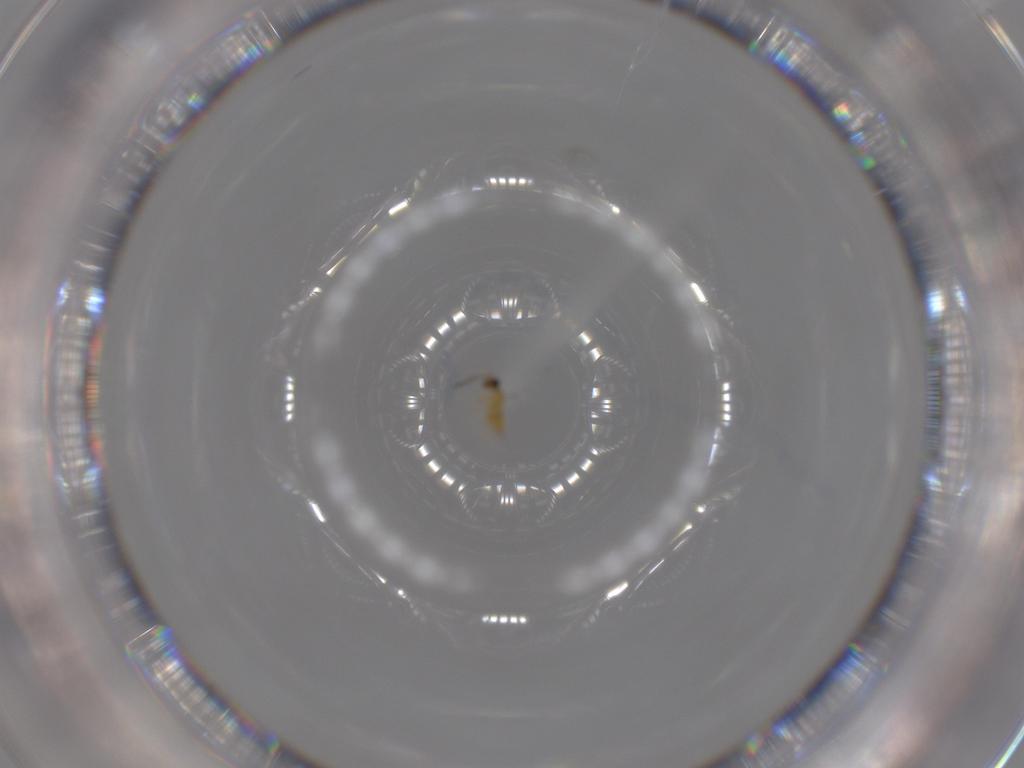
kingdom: Animalia
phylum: Arthropoda
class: Insecta
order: Hymenoptera
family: Mymaridae
